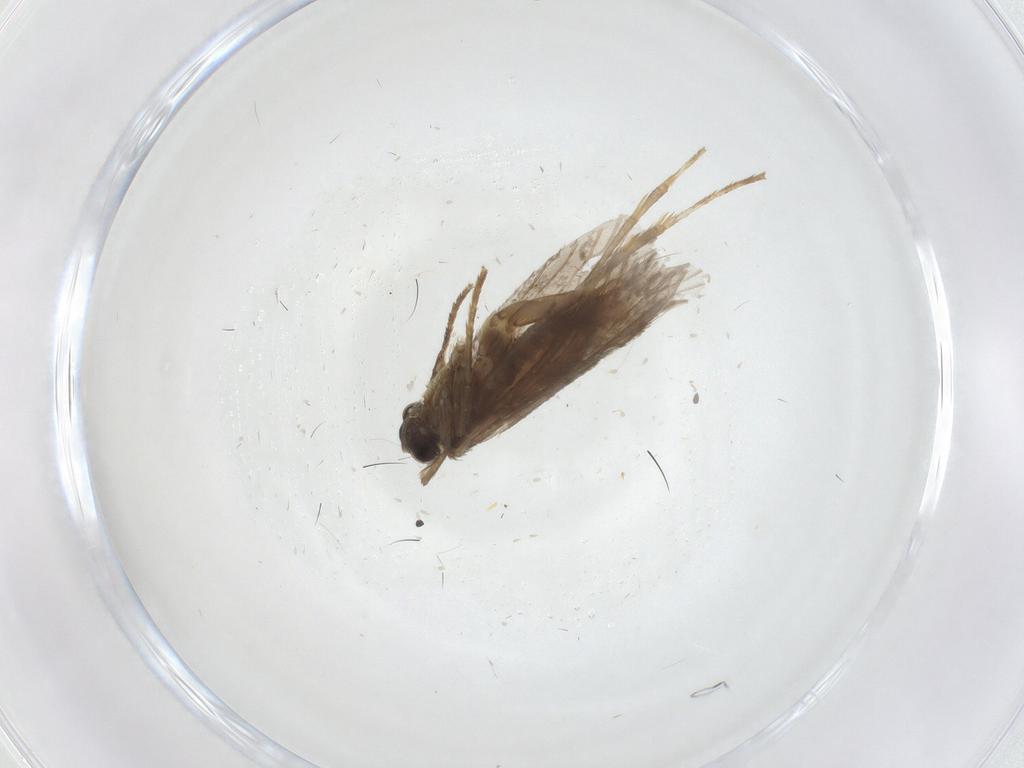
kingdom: Animalia
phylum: Arthropoda
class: Insecta
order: Lepidoptera
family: Micropterigidae
